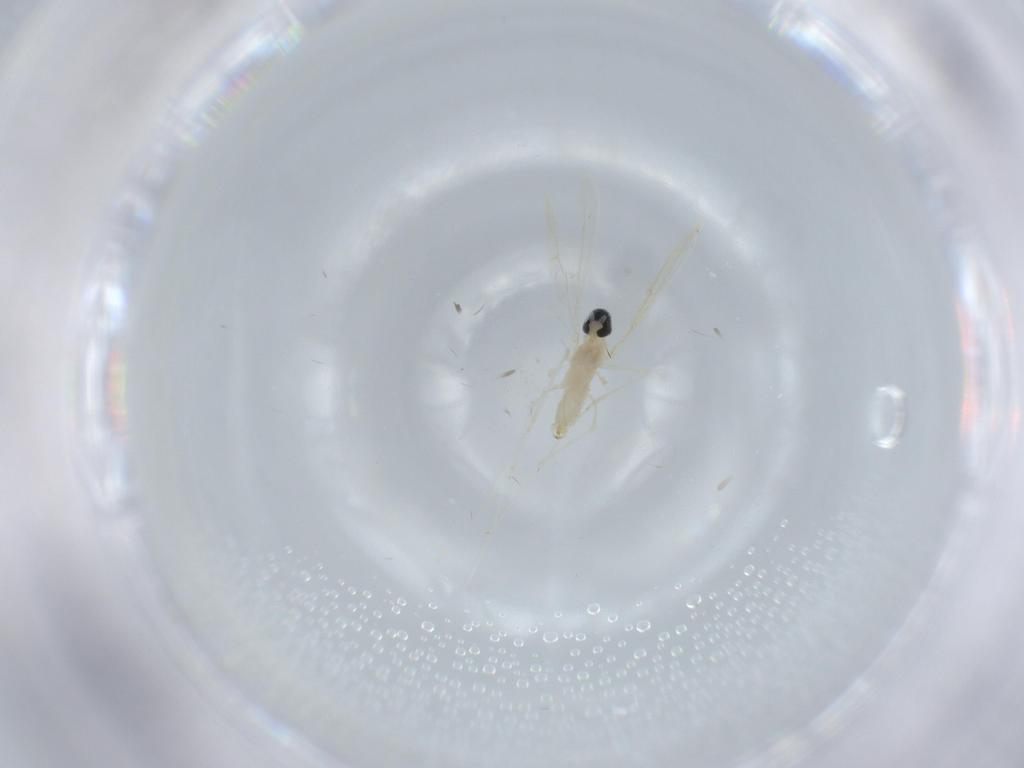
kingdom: Animalia
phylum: Arthropoda
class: Insecta
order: Diptera
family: Cecidomyiidae
